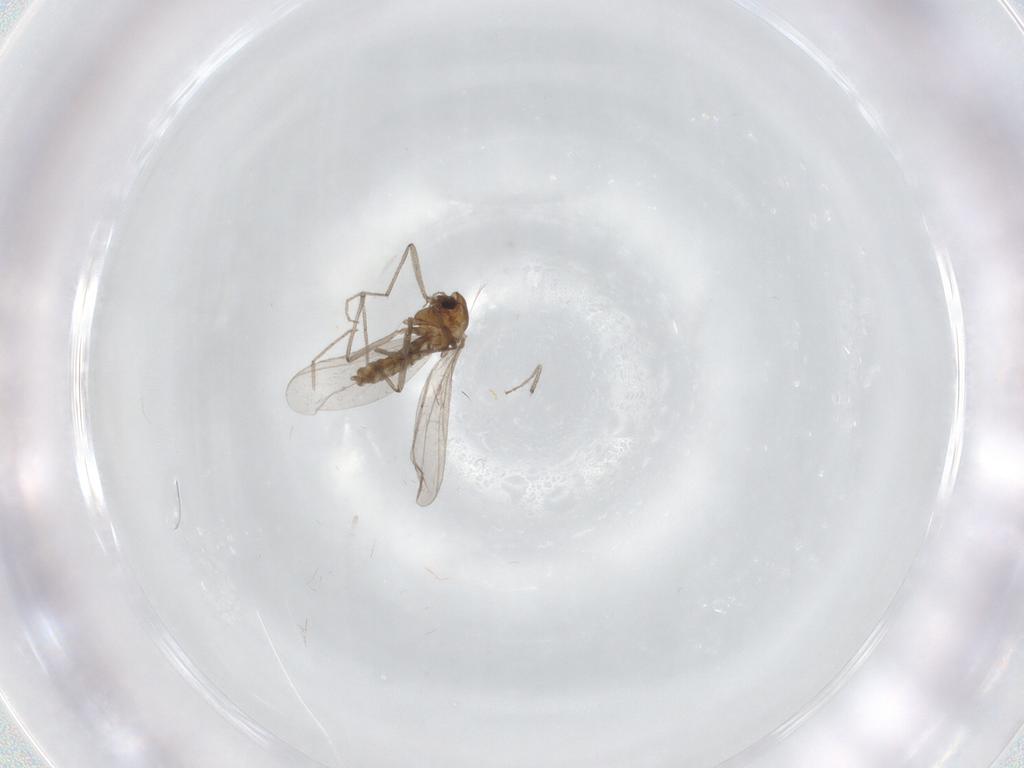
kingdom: Animalia
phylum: Arthropoda
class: Insecta
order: Diptera
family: Chironomidae
